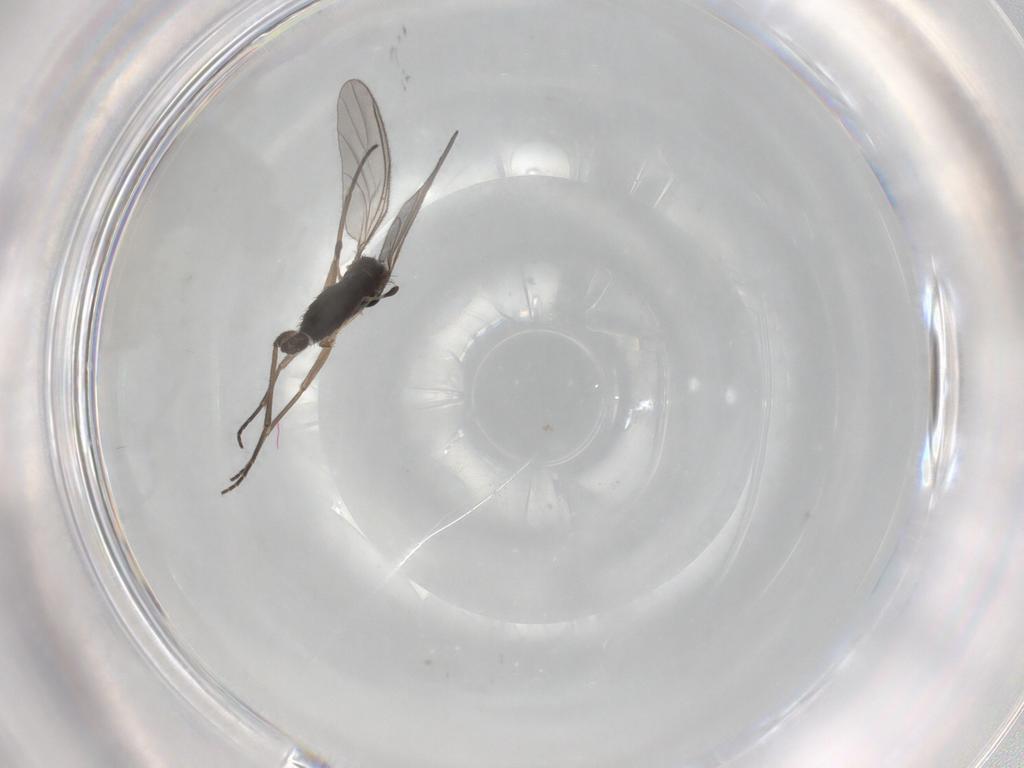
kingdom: Animalia
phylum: Arthropoda
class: Insecta
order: Diptera
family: Sciaridae
